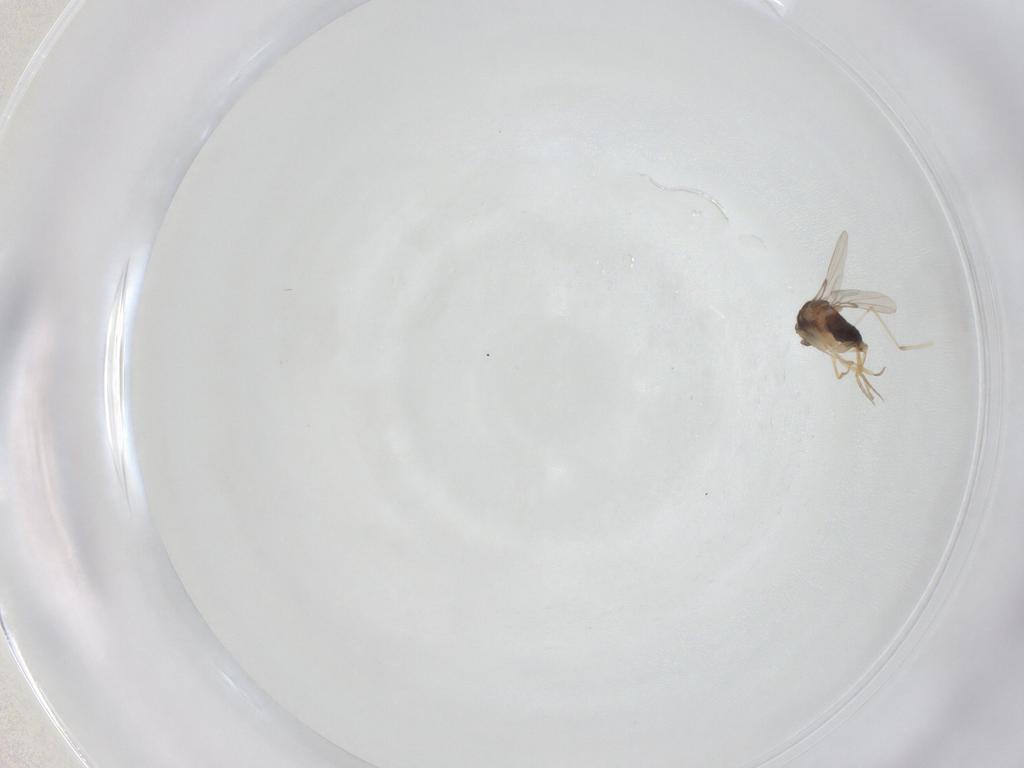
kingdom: Animalia
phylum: Arthropoda
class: Insecta
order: Diptera
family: Phoridae
